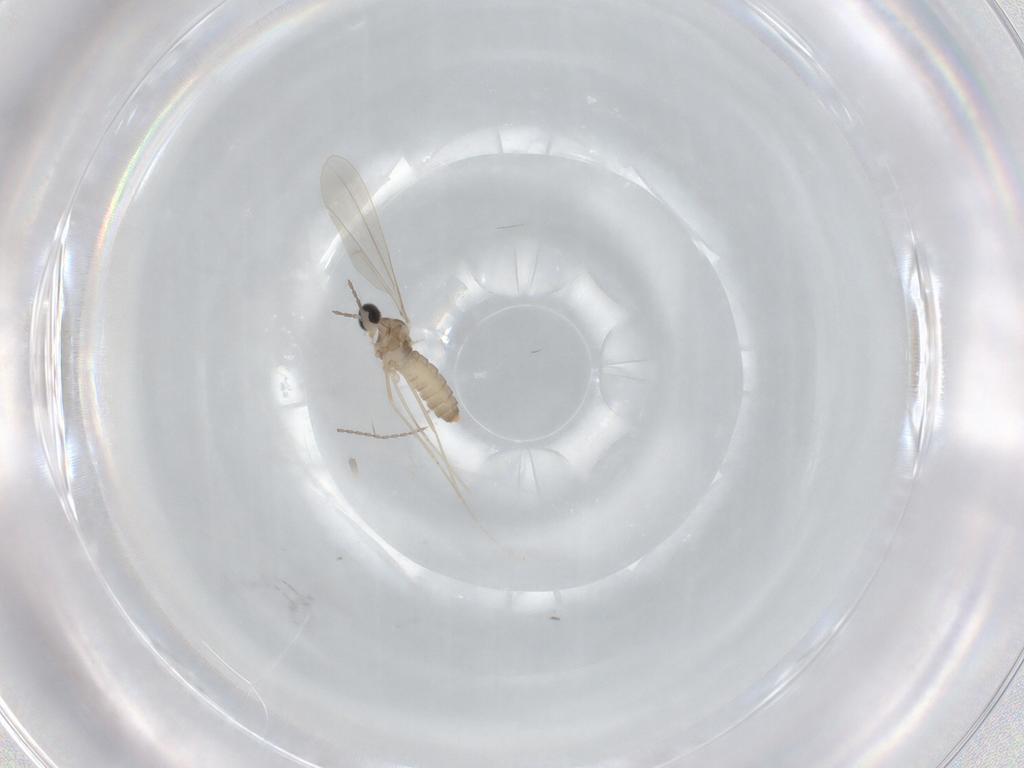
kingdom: Animalia
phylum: Arthropoda
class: Insecta
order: Diptera
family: Cecidomyiidae
